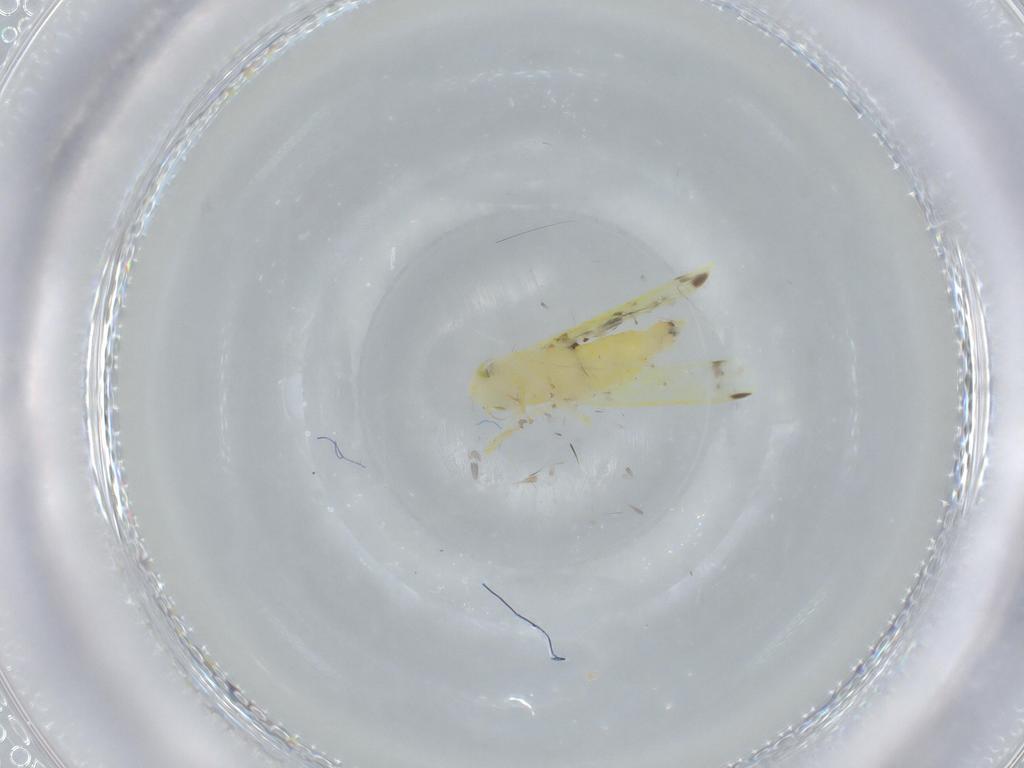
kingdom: Animalia
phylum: Arthropoda
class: Insecta
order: Hemiptera
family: Cicadellidae
